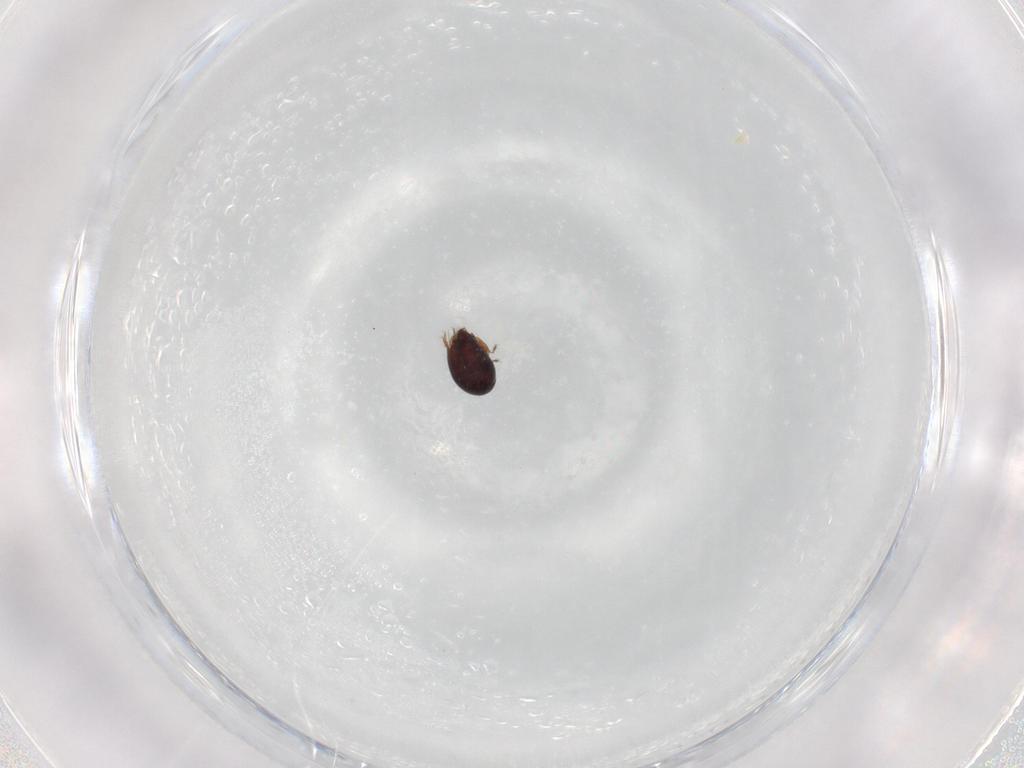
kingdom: Animalia
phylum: Arthropoda
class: Arachnida
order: Sarcoptiformes
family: Ceratozetidae
